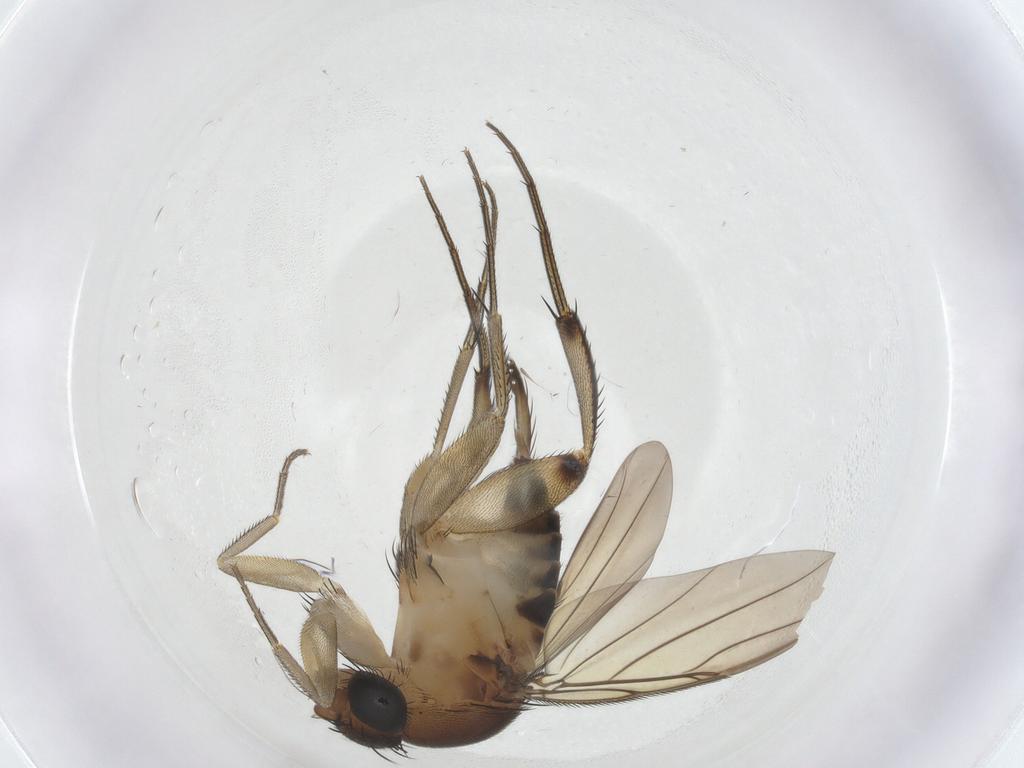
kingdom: Animalia
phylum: Arthropoda
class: Insecta
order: Diptera
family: Phoridae
